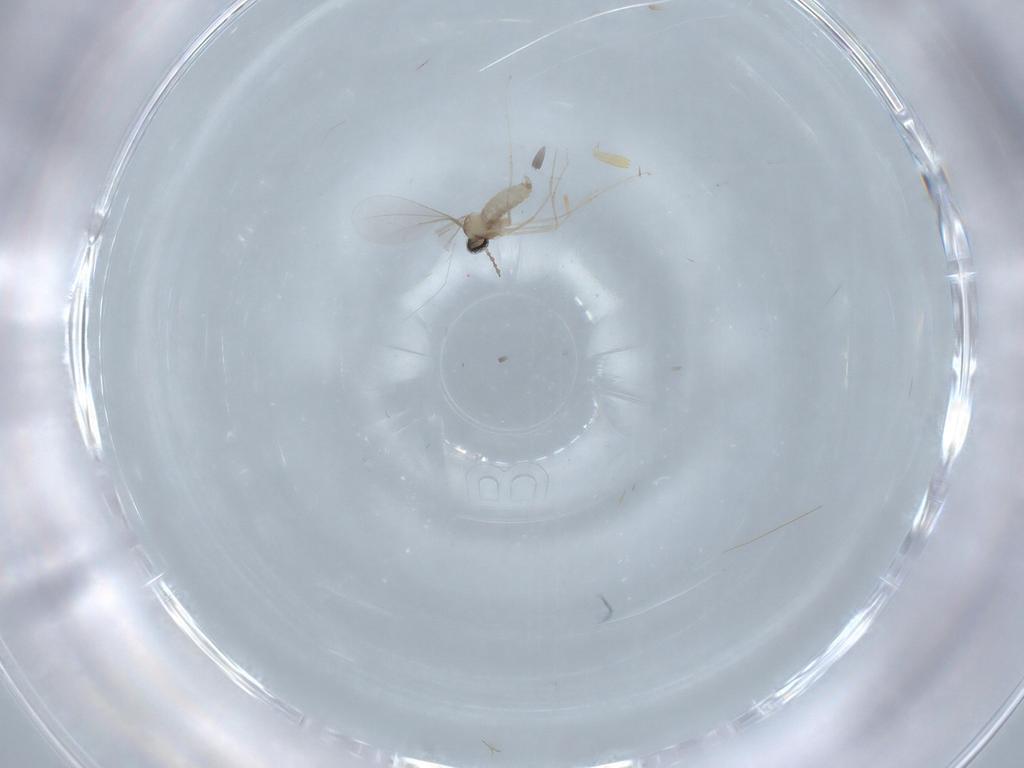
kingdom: Animalia
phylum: Arthropoda
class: Insecta
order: Diptera
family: Cecidomyiidae
